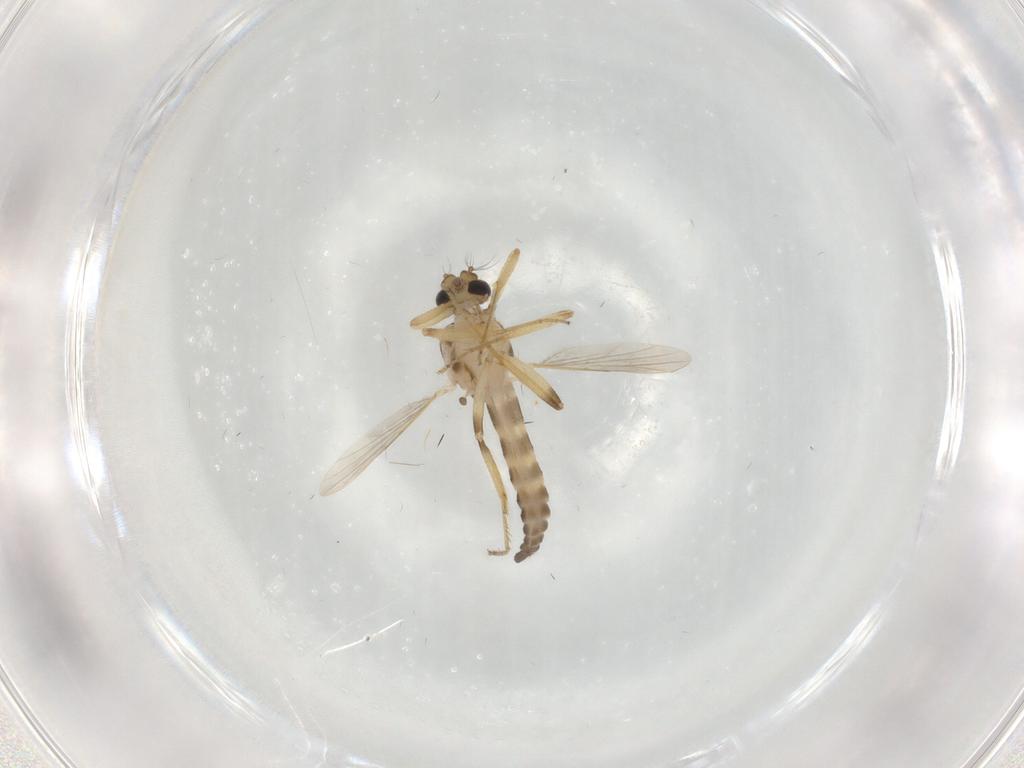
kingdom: Animalia
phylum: Arthropoda
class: Insecta
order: Diptera
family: Ceratopogonidae
